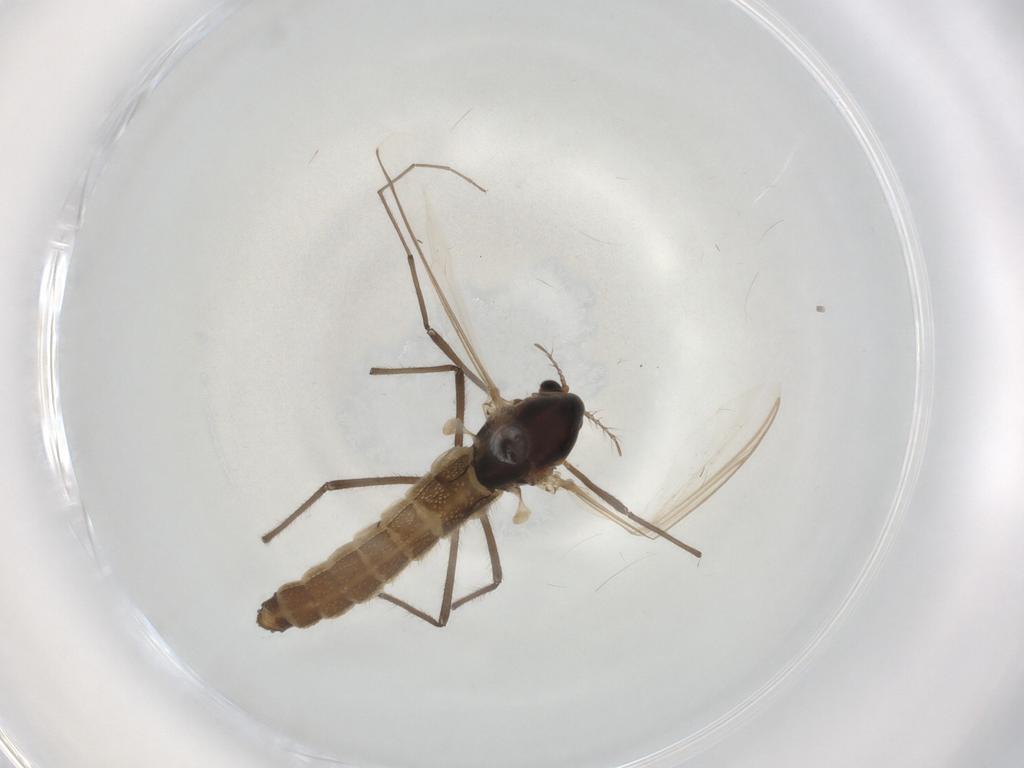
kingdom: Animalia
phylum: Arthropoda
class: Insecta
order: Diptera
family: Chironomidae
